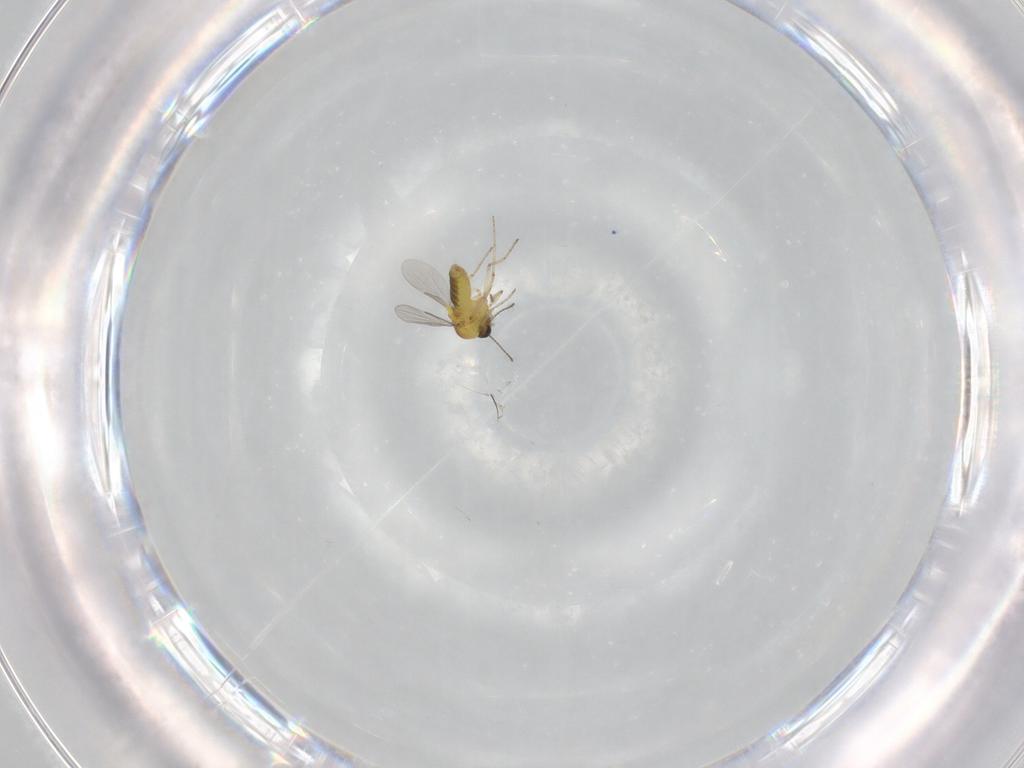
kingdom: Animalia
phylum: Arthropoda
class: Insecta
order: Diptera
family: Ceratopogonidae
